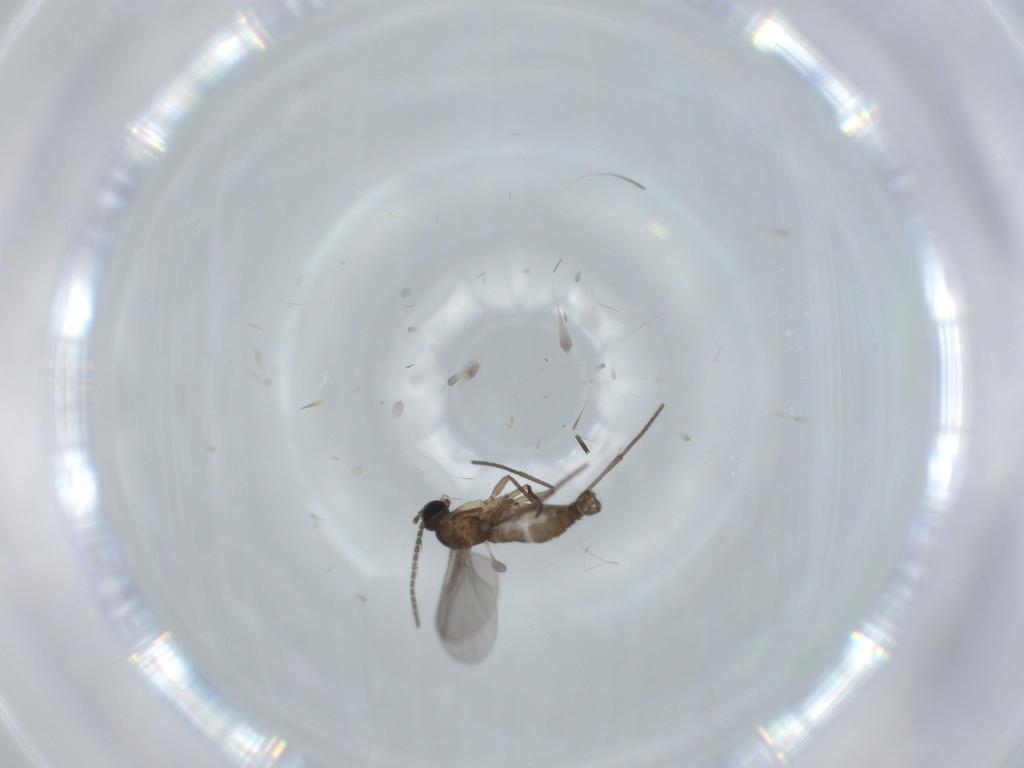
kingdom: Animalia
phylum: Arthropoda
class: Insecta
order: Diptera
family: Sciaridae
